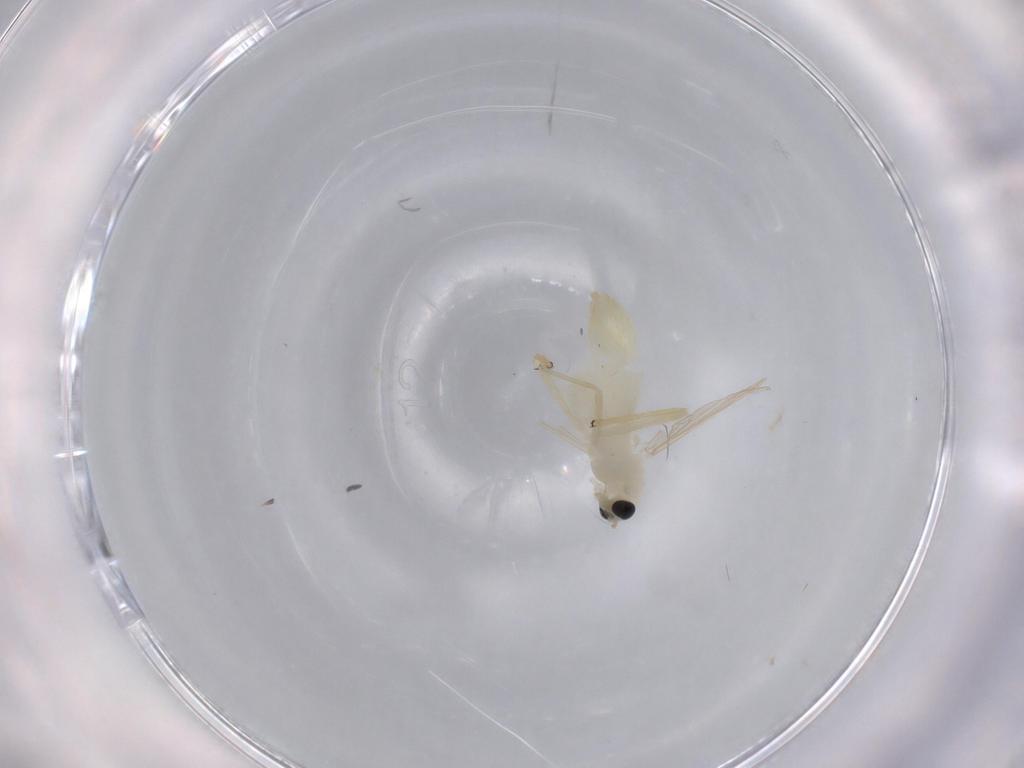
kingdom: Animalia
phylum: Arthropoda
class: Insecta
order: Diptera
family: Chironomidae
